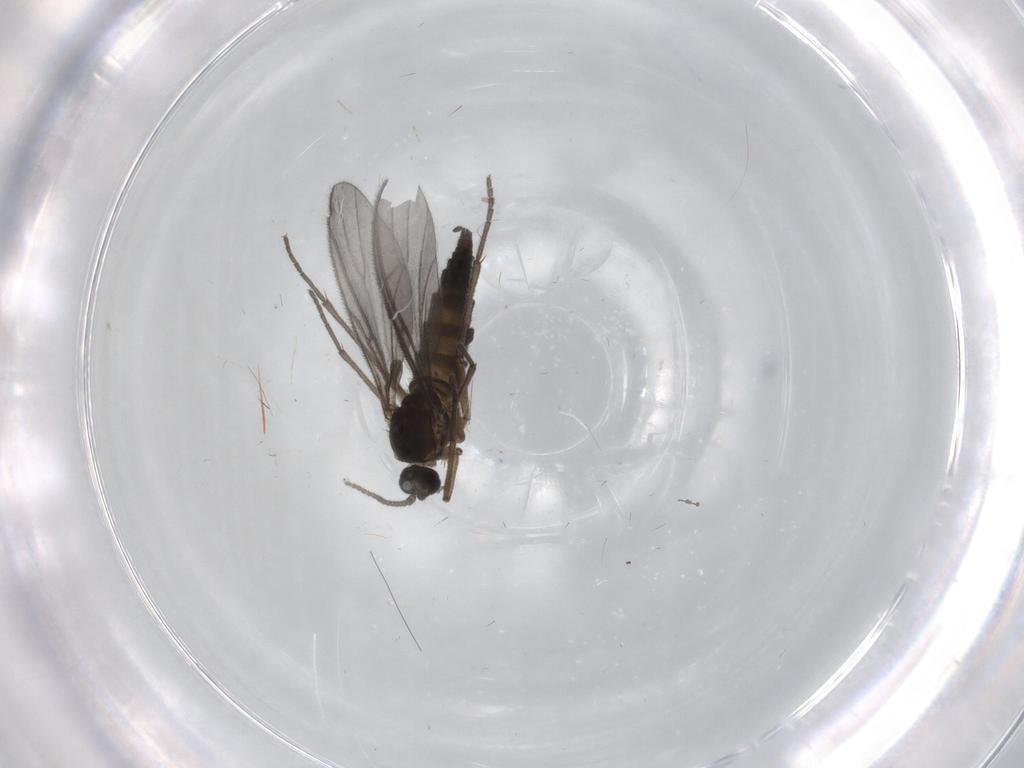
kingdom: Animalia
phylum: Arthropoda
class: Insecta
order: Diptera
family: Sciaridae
